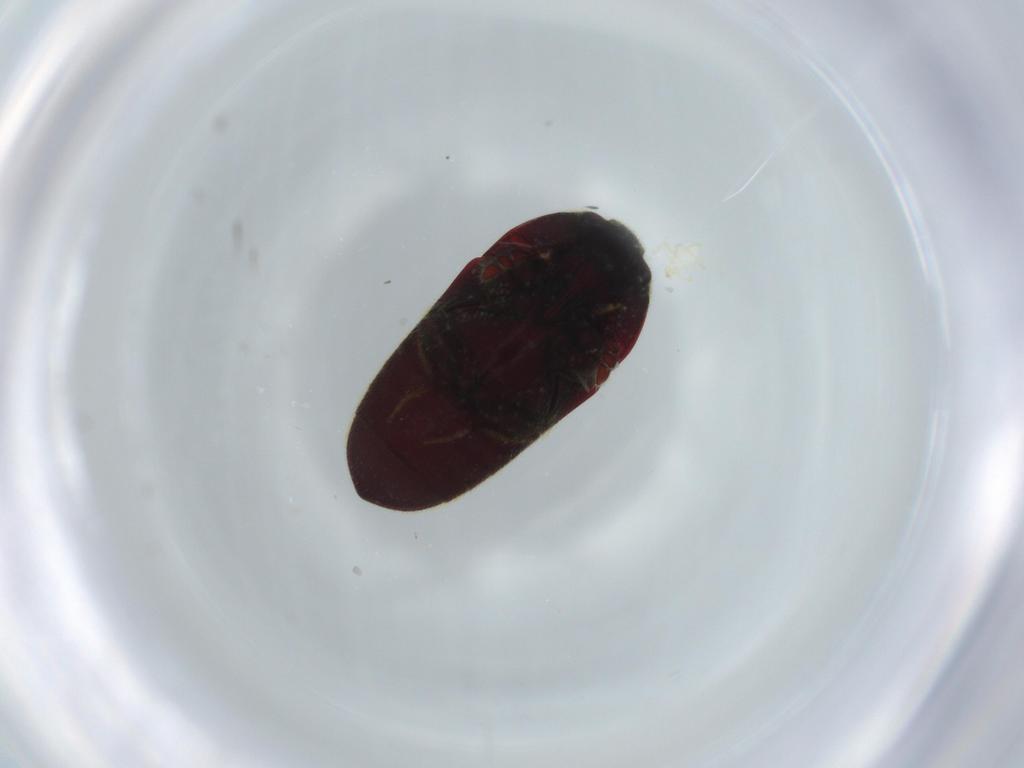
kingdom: Animalia
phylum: Arthropoda
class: Insecta
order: Coleoptera
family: Throscidae
